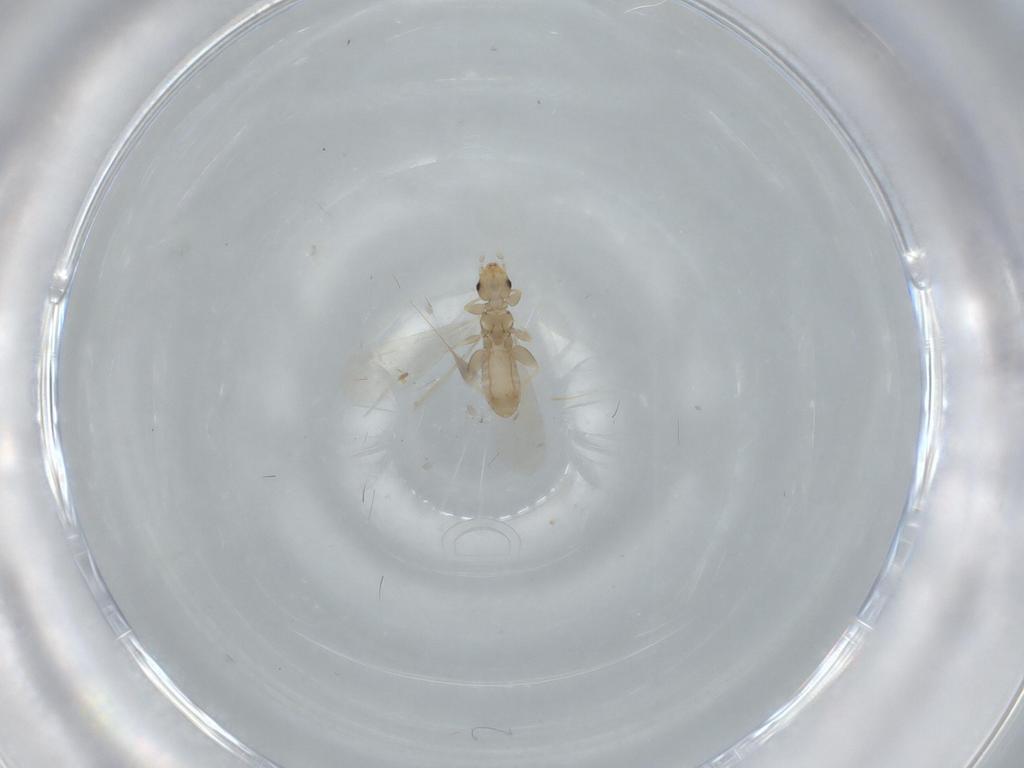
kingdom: Animalia
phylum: Arthropoda
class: Insecta
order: Psocodea
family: Liposcelididae
